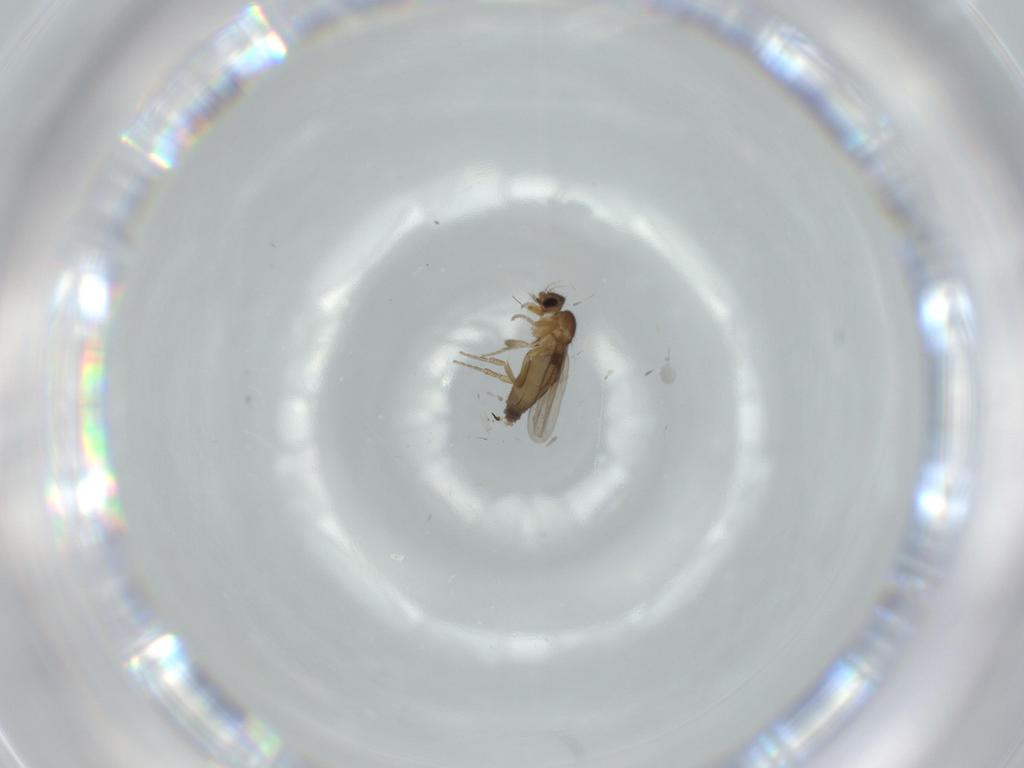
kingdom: Animalia
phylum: Arthropoda
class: Insecta
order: Diptera
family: Phoridae
